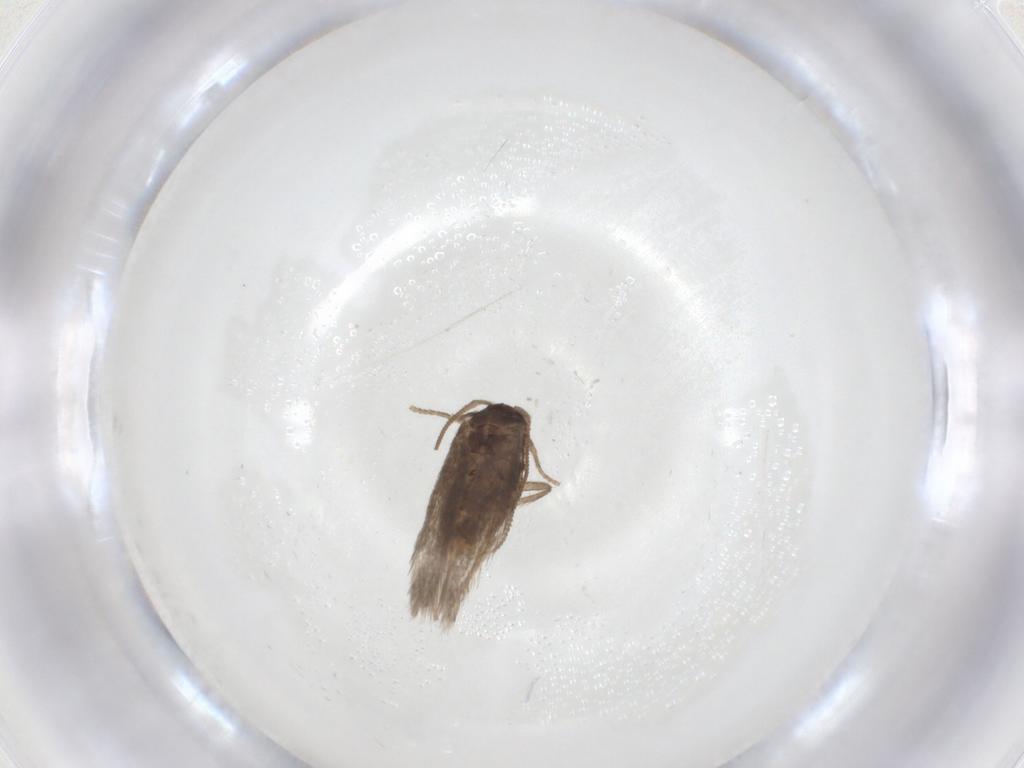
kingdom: Animalia
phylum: Arthropoda
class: Insecta
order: Lepidoptera
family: Nepticulidae
